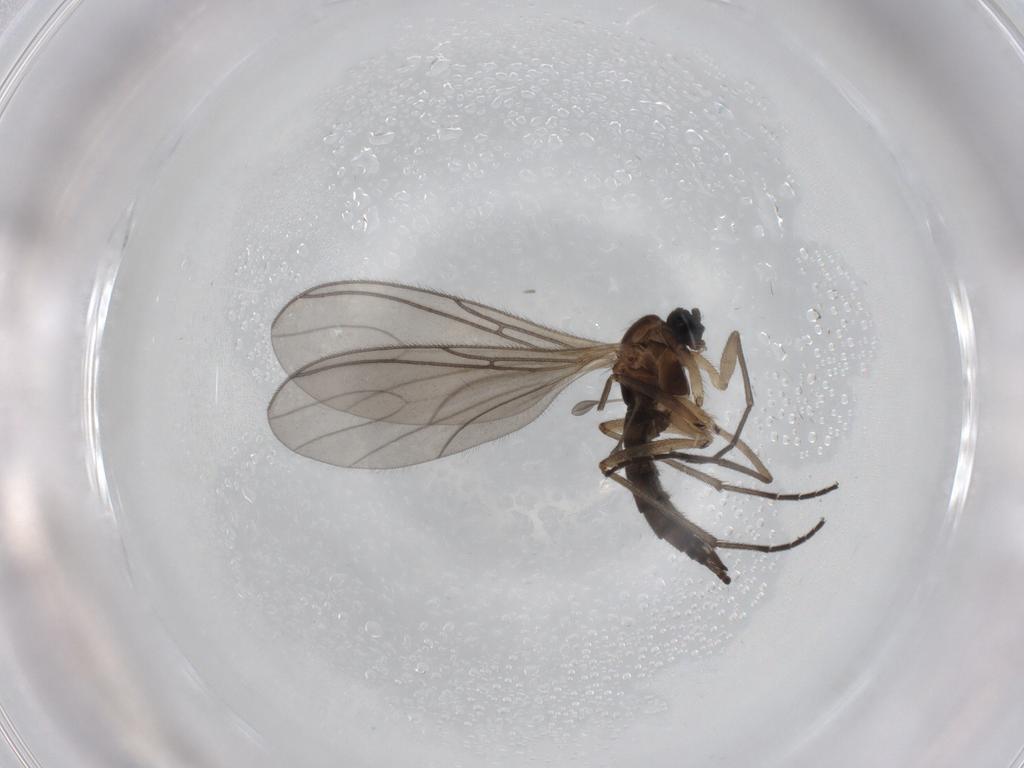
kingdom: Animalia
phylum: Arthropoda
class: Insecta
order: Diptera
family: Sciaridae
